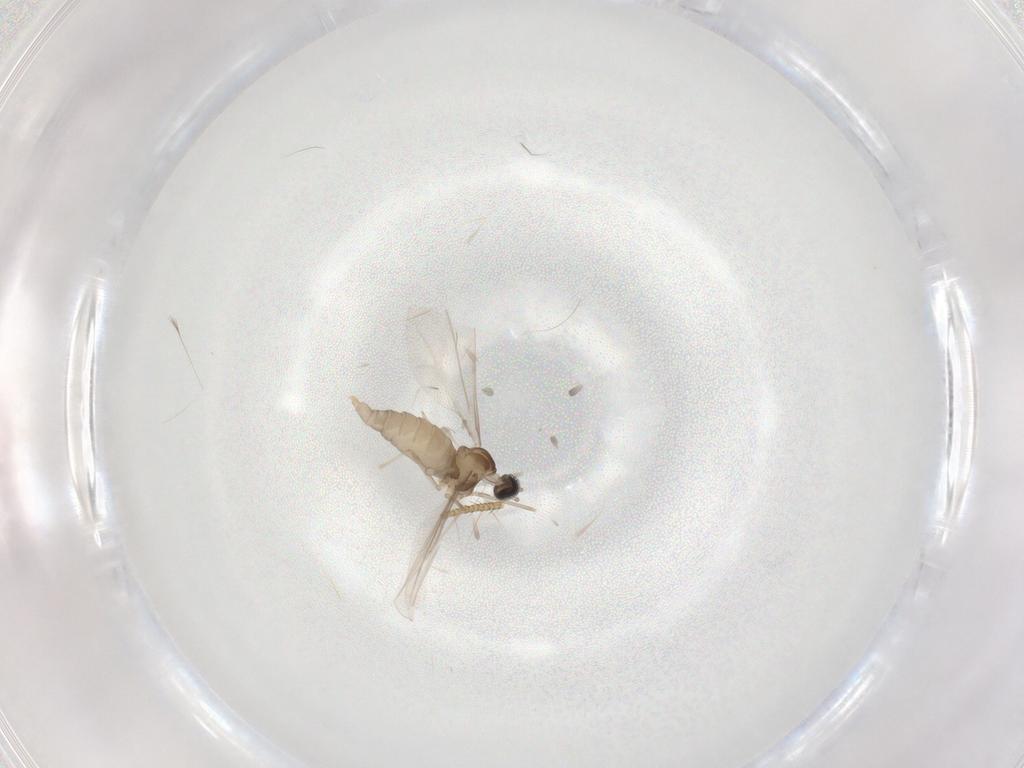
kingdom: Animalia
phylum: Arthropoda
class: Insecta
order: Diptera
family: Cecidomyiidae
